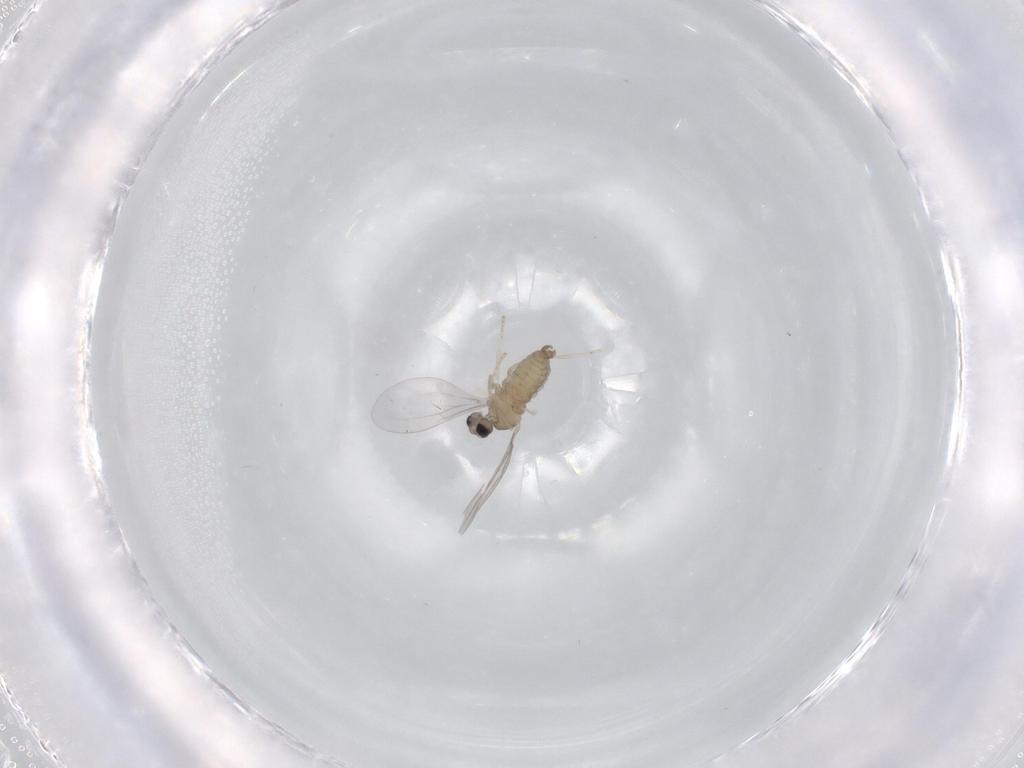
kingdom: Animalia
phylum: Arthropoda
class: Insecta
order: Diptera
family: Cecidomyiidae
